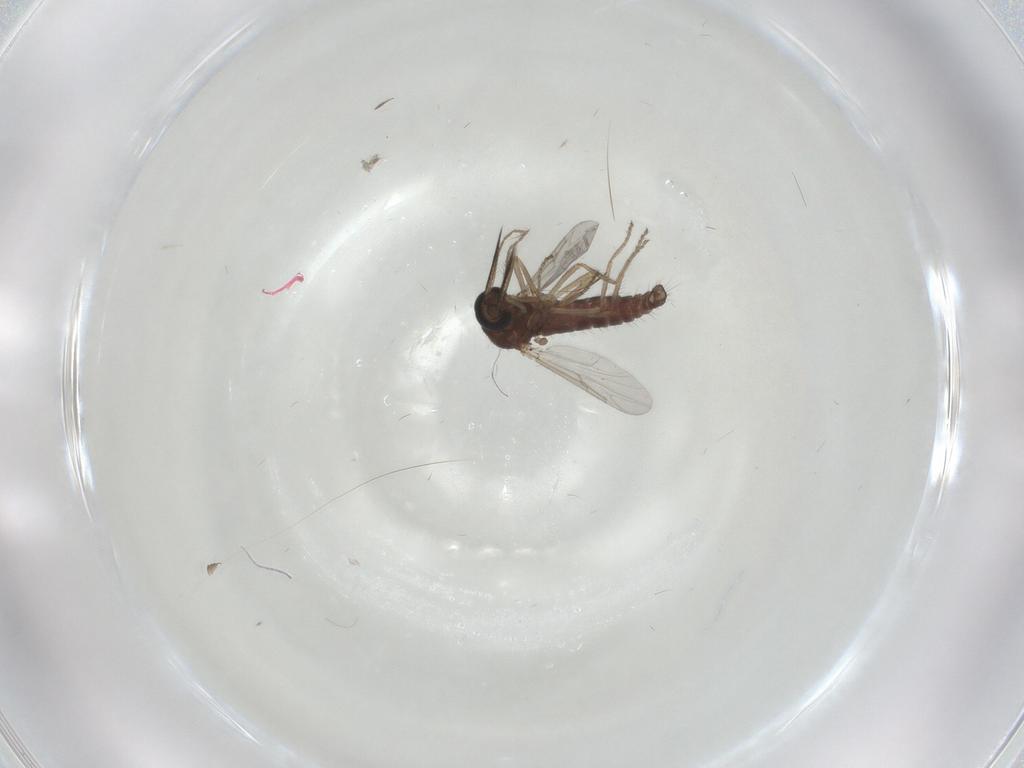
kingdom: Animalia
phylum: Arthropoda
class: Insecta
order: Diptera
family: Ceratopogonidae
